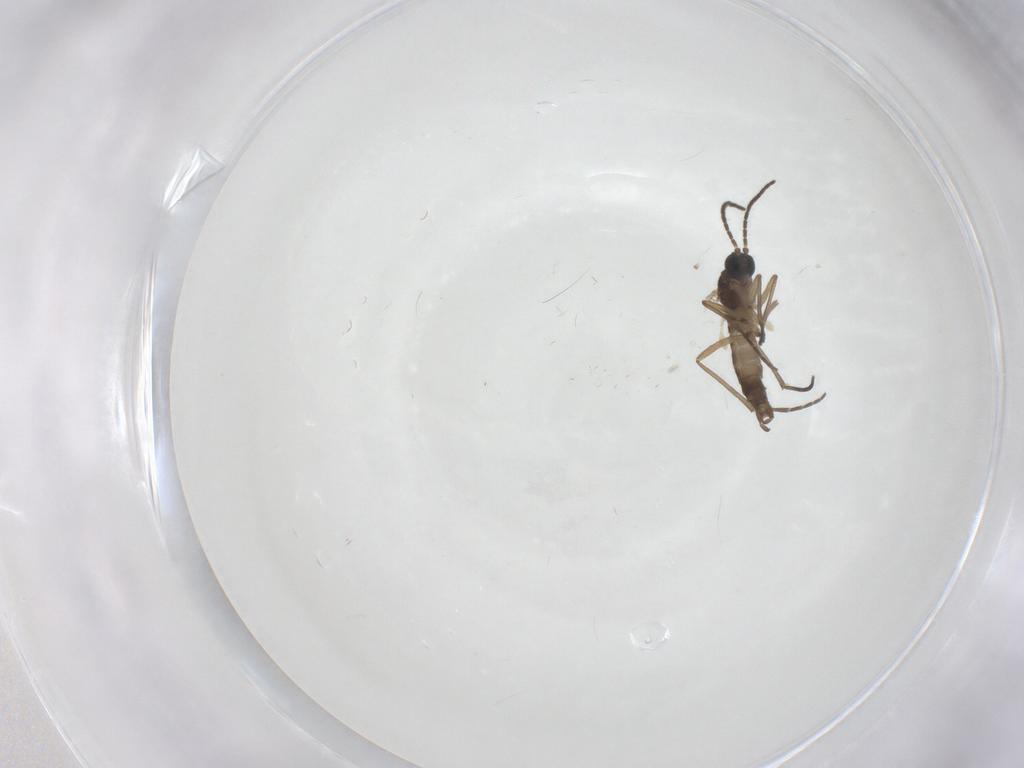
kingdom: Animalia
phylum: Arthropoda
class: Insecta
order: Diptera
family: Sciaridae
